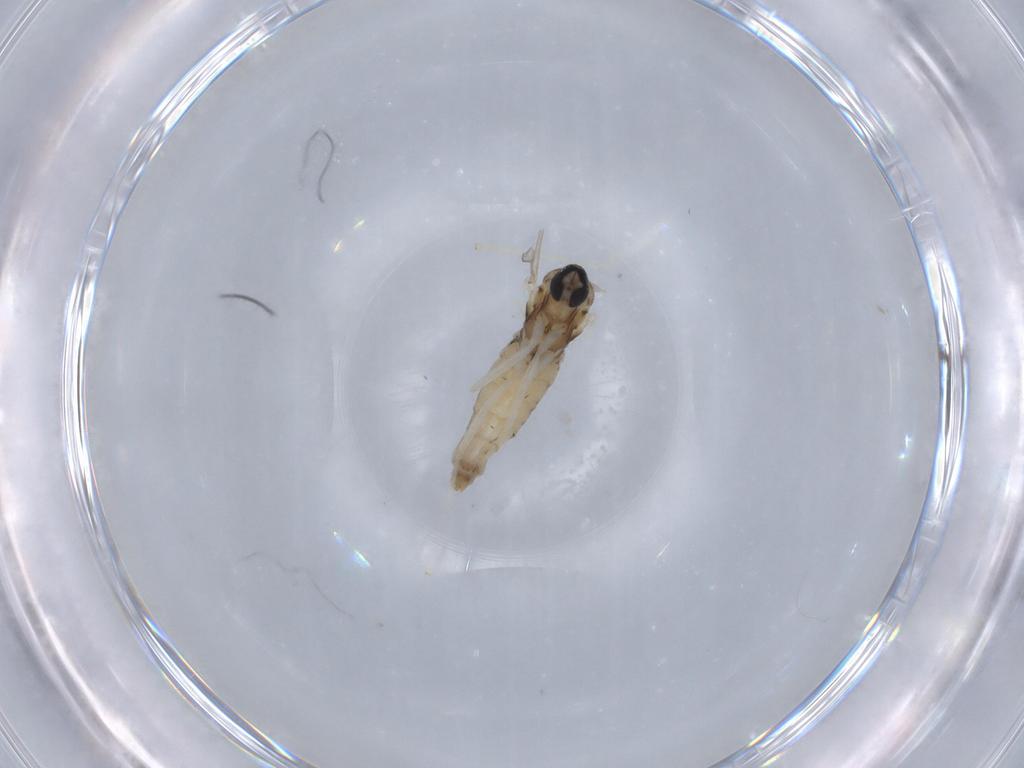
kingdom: Animalia
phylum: Arthropoda
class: Insecta
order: Diptera
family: Cecidomyiidae
